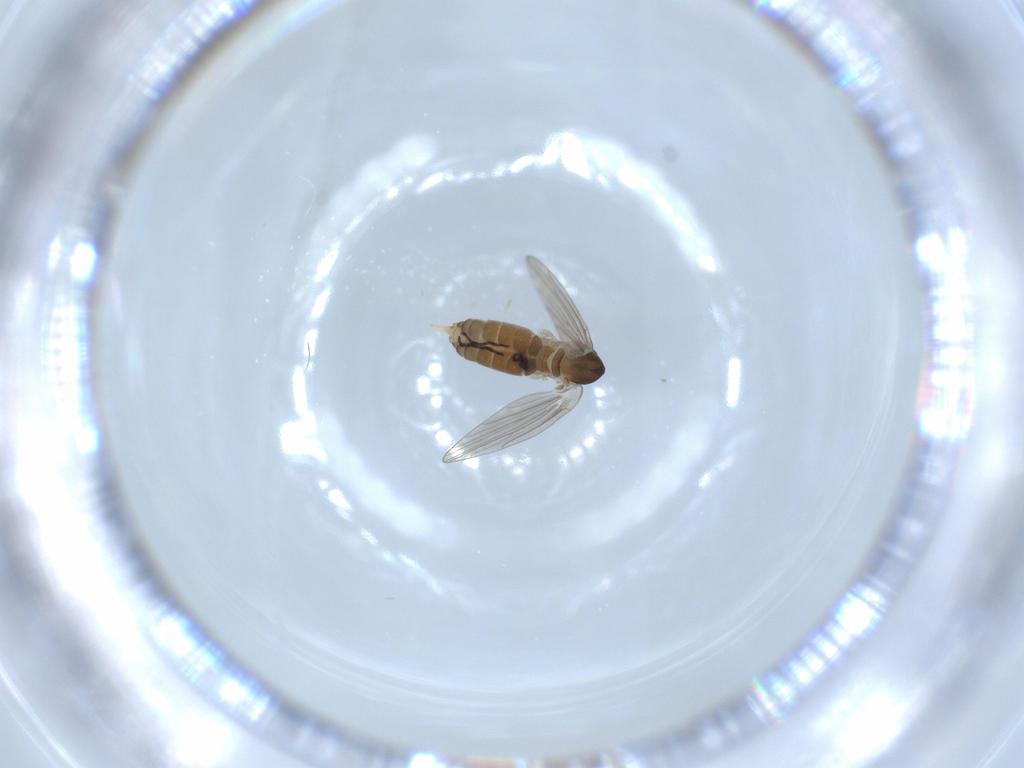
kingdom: Animalia
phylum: Arthropoda
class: Insecta
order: Diptera
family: Psychodidae
